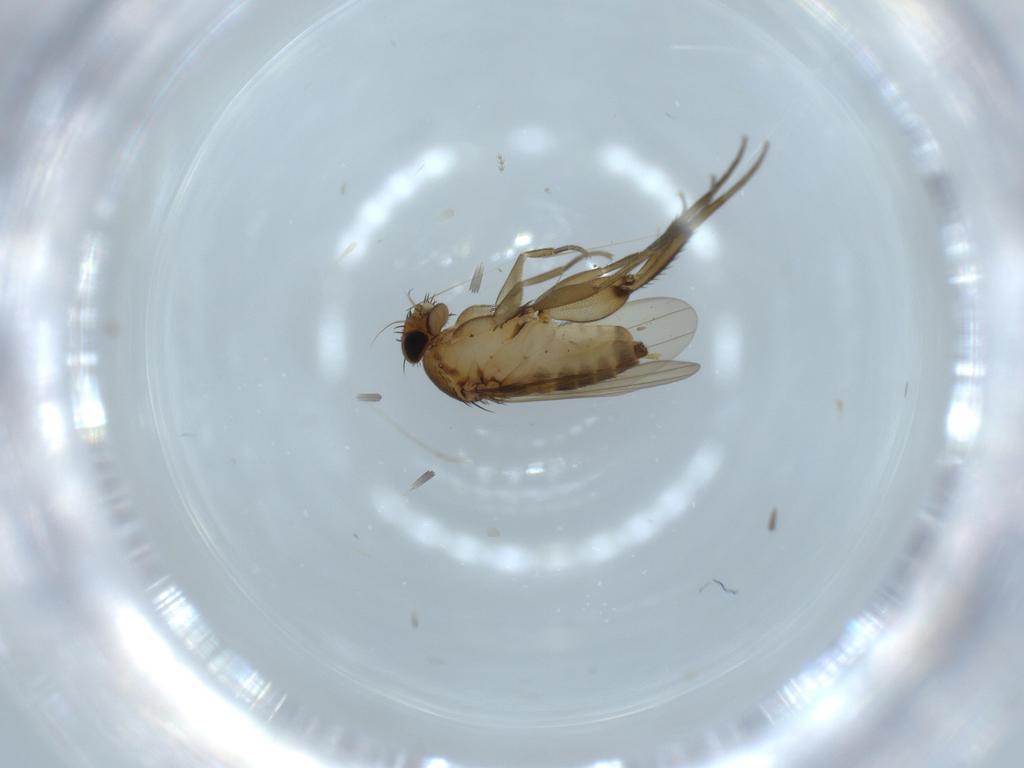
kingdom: Animalia
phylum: Arthropoda
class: Insecta
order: Diptera
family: Phoridae
